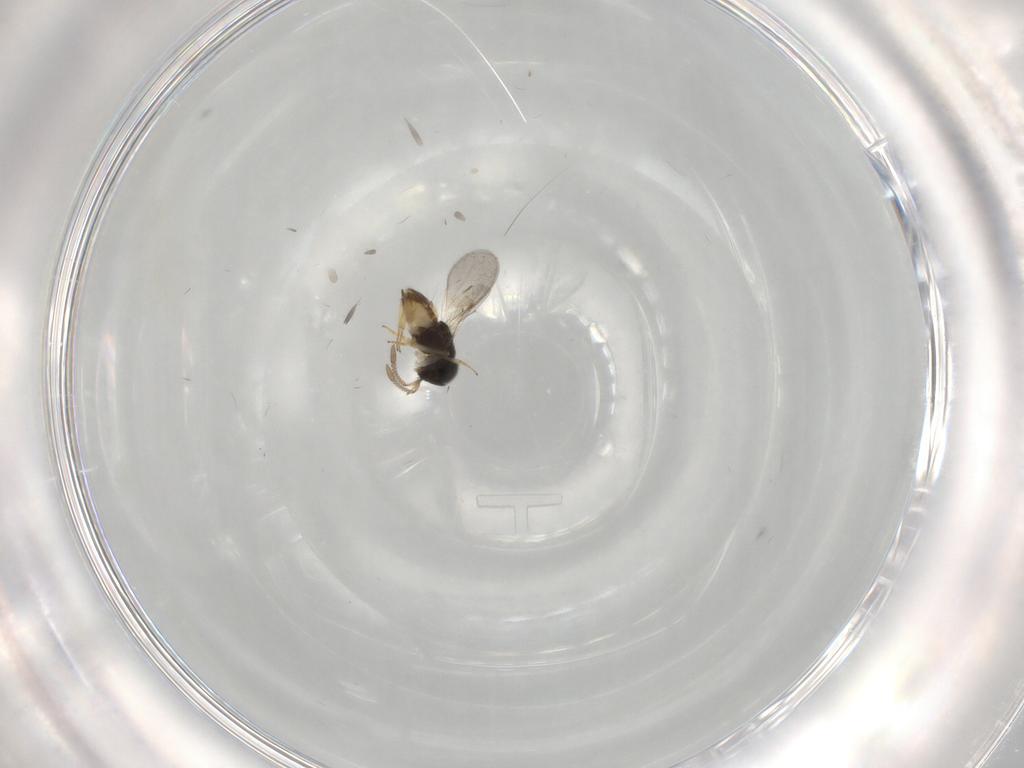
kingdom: Animalia
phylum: Arthropoda
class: Insecta
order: Hymenoptera
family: Encyrtidae
